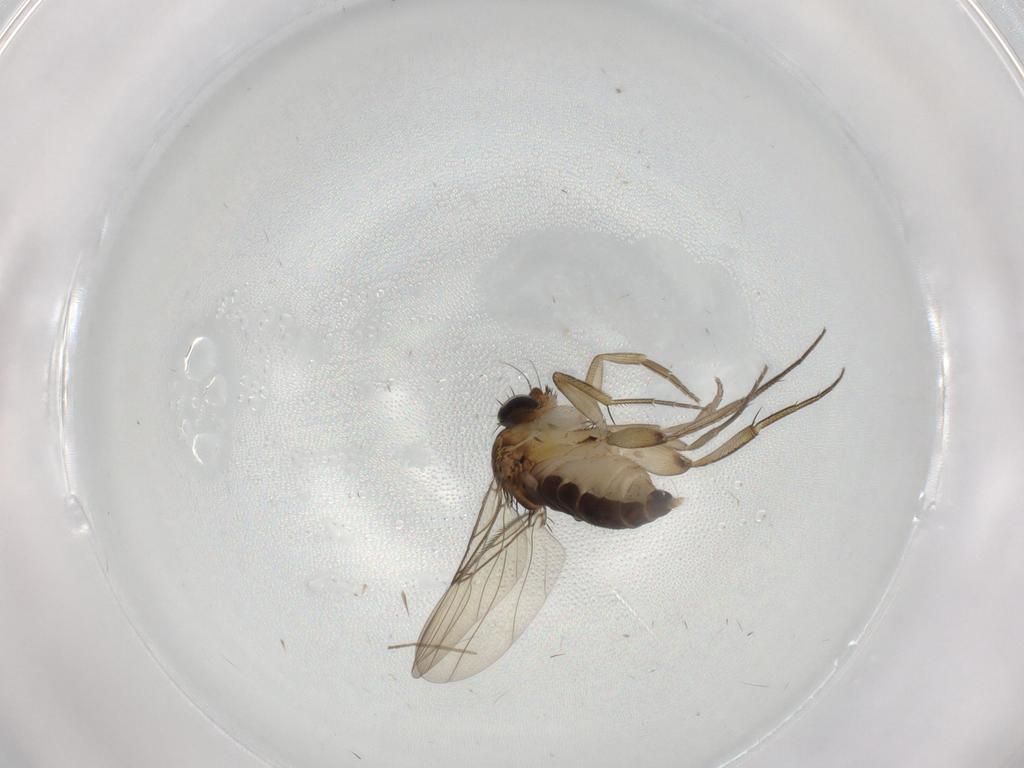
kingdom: Animalia
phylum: Arthropoda
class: Insecta
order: Diptera
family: Phoridae
